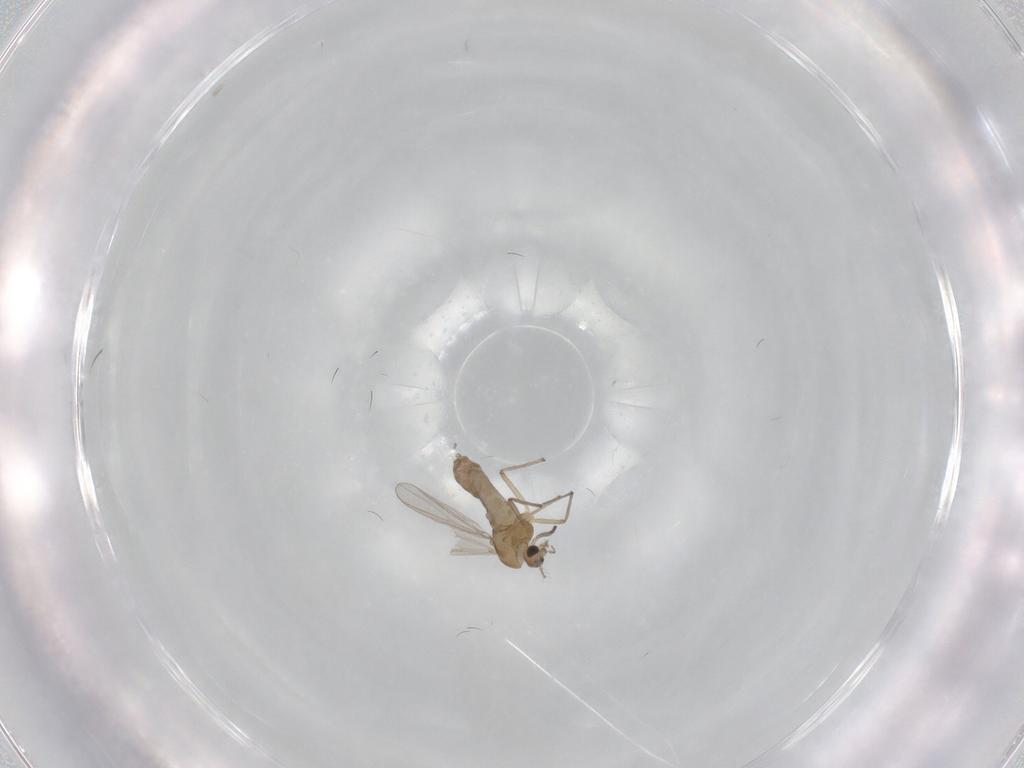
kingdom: Animalia
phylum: Arthropoda
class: Insecta
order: Diptera
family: Chironomidae
